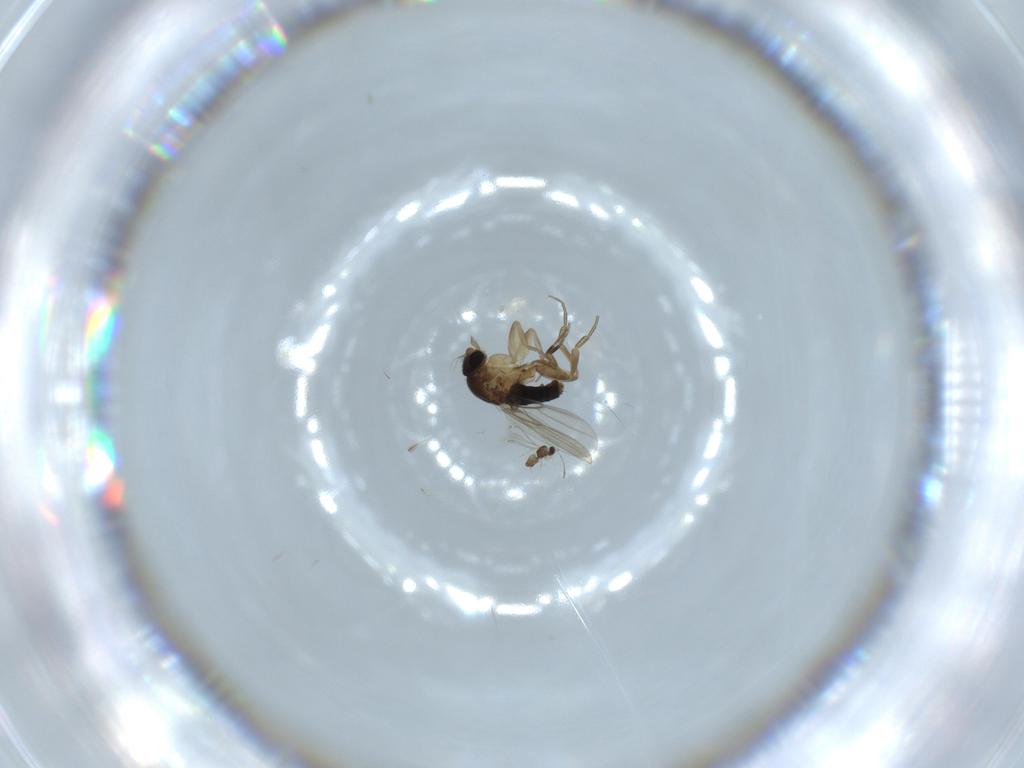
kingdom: Animalia
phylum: Arthropoda
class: Insecta
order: Diptera
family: Phoridae
